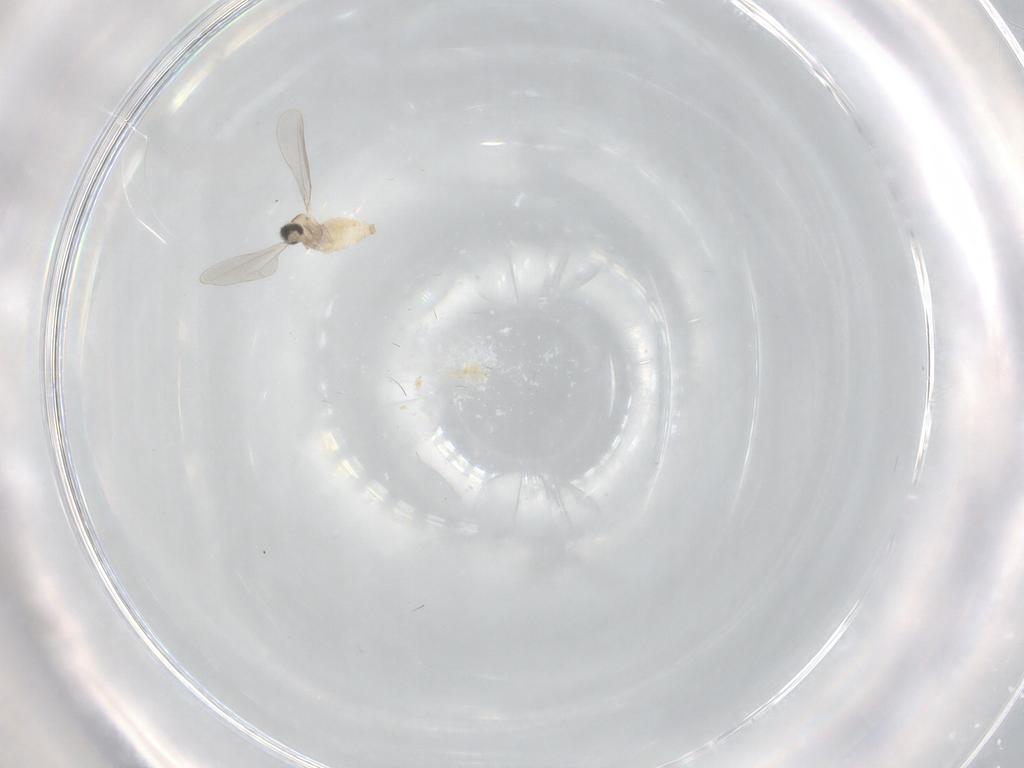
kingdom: Animalia
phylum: Arthropoda
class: Insecta
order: Diptera
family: Cecidomyiidae
